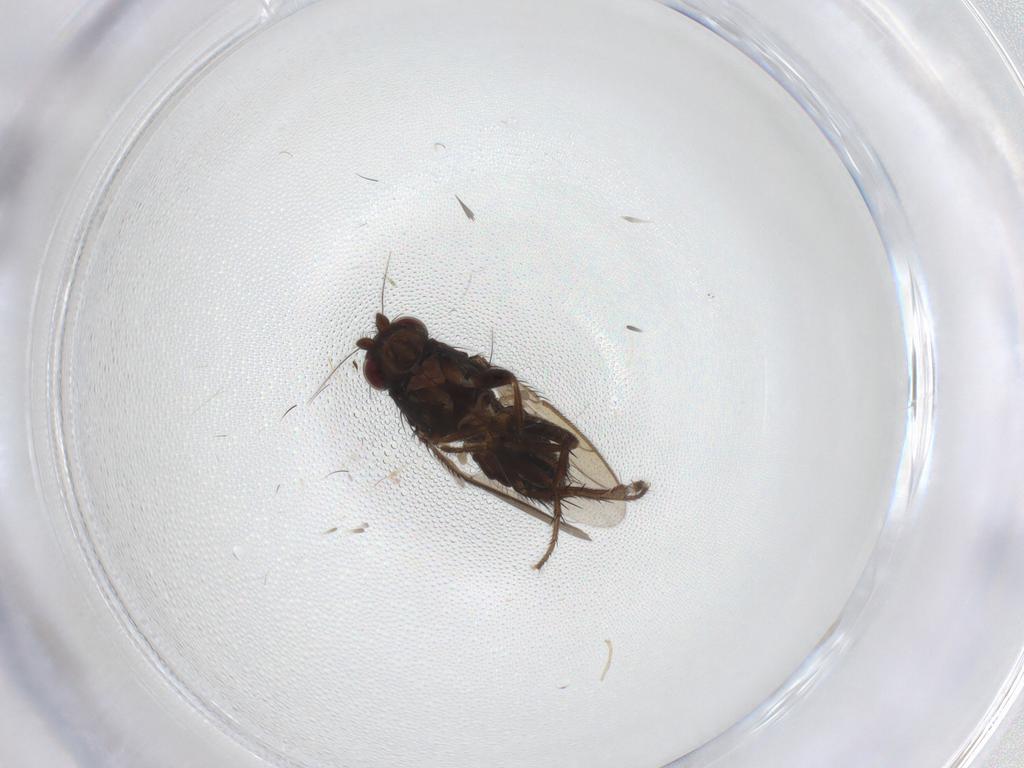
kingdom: Animalia
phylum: Arthropoda
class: Insecta
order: Diptera
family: Sphaeroceridae
